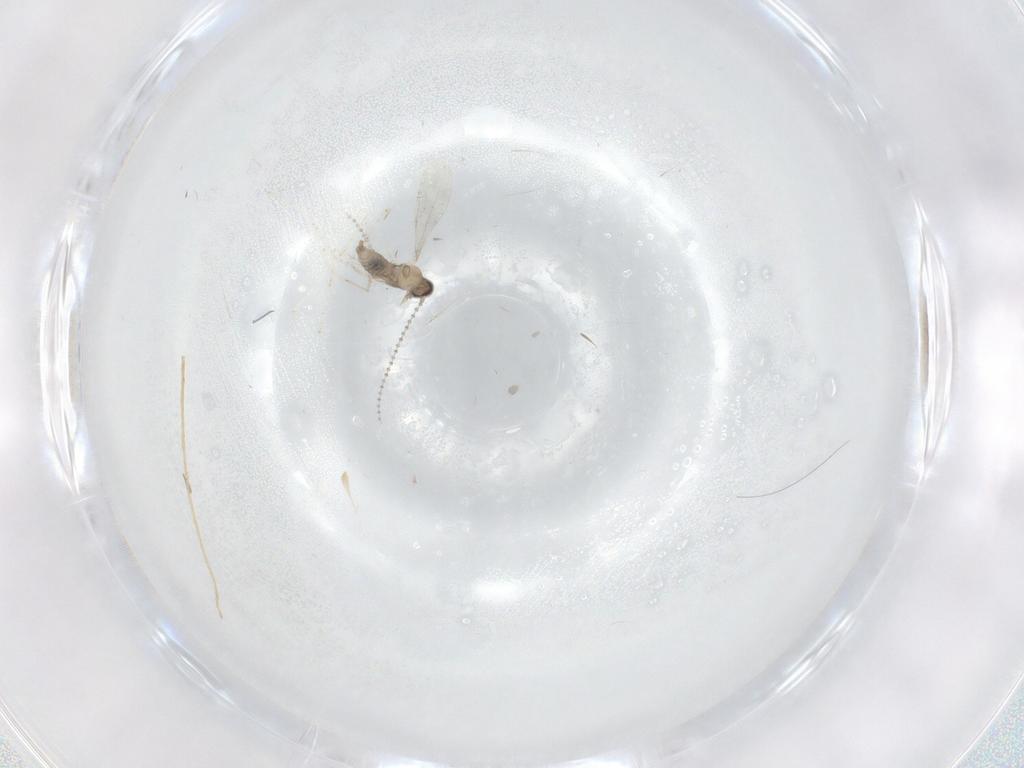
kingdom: Animalia
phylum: Arthropoda
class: Insecta
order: Diptera
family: Cecidomyiidae
